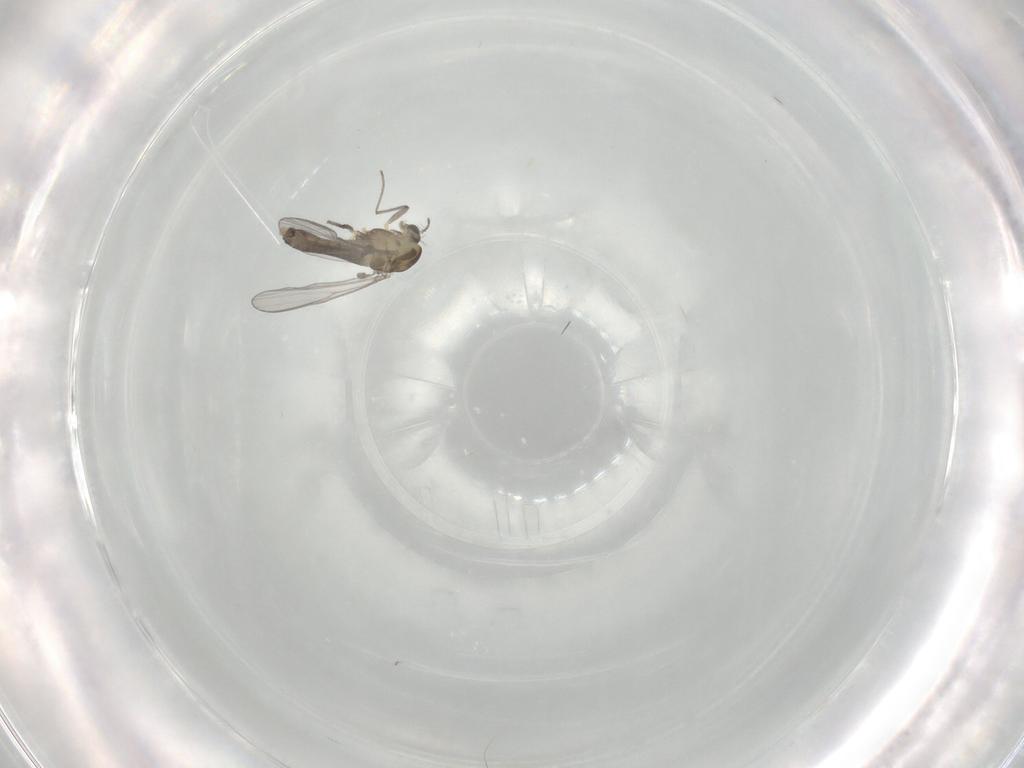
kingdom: Animalia
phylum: Arthropoda
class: Insecta
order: Diptera
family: Chironomidae
